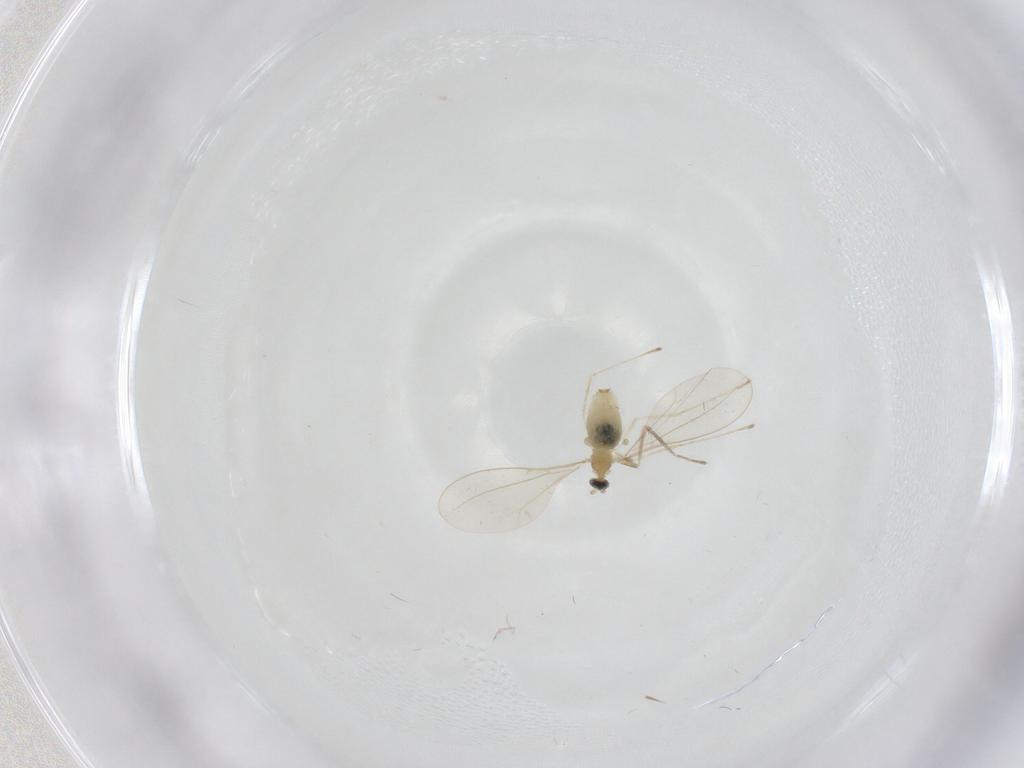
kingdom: Animalia
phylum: Arthropoda
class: Insecta
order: Diptera
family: Cecidomyiidae
